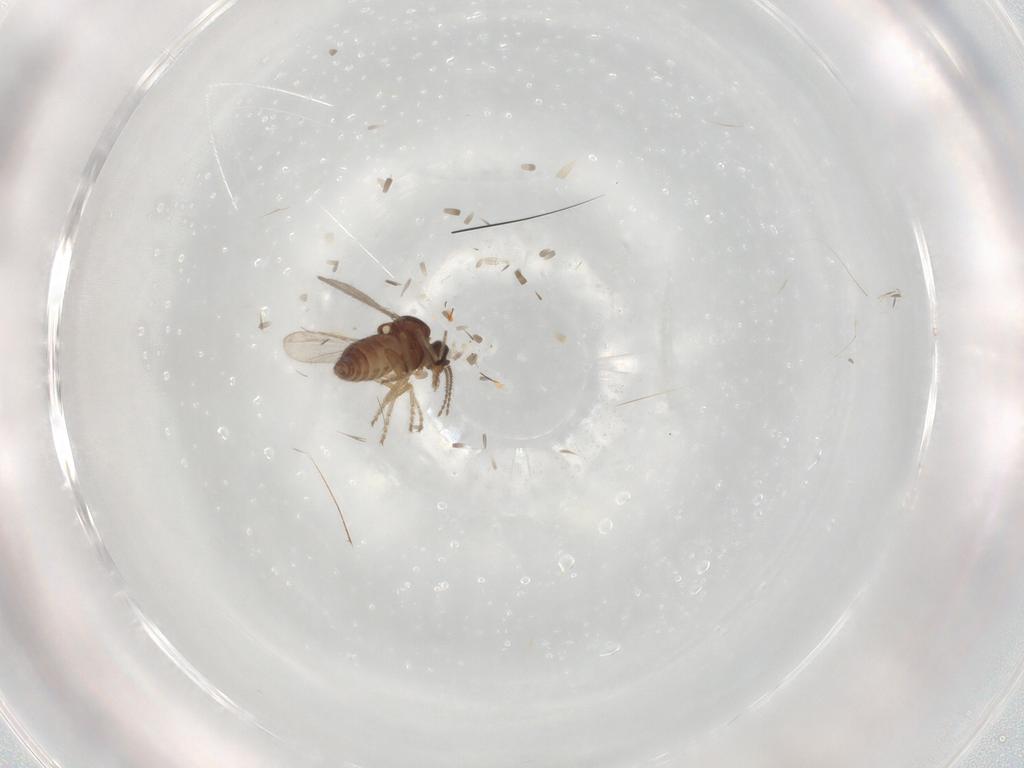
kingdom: Animalia
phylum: Arthropoda
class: Insecta
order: Diptera
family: Ceratopogonidae
